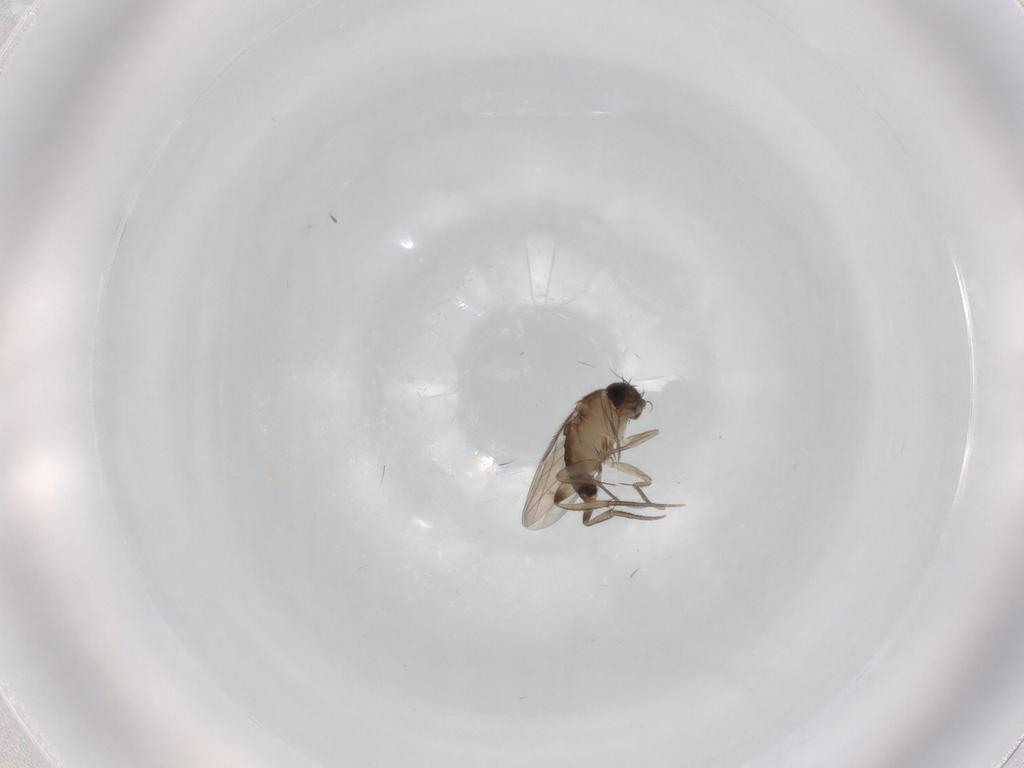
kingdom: Animalia
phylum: Arthropoda
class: Insecta
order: Diptera
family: Phoridae
